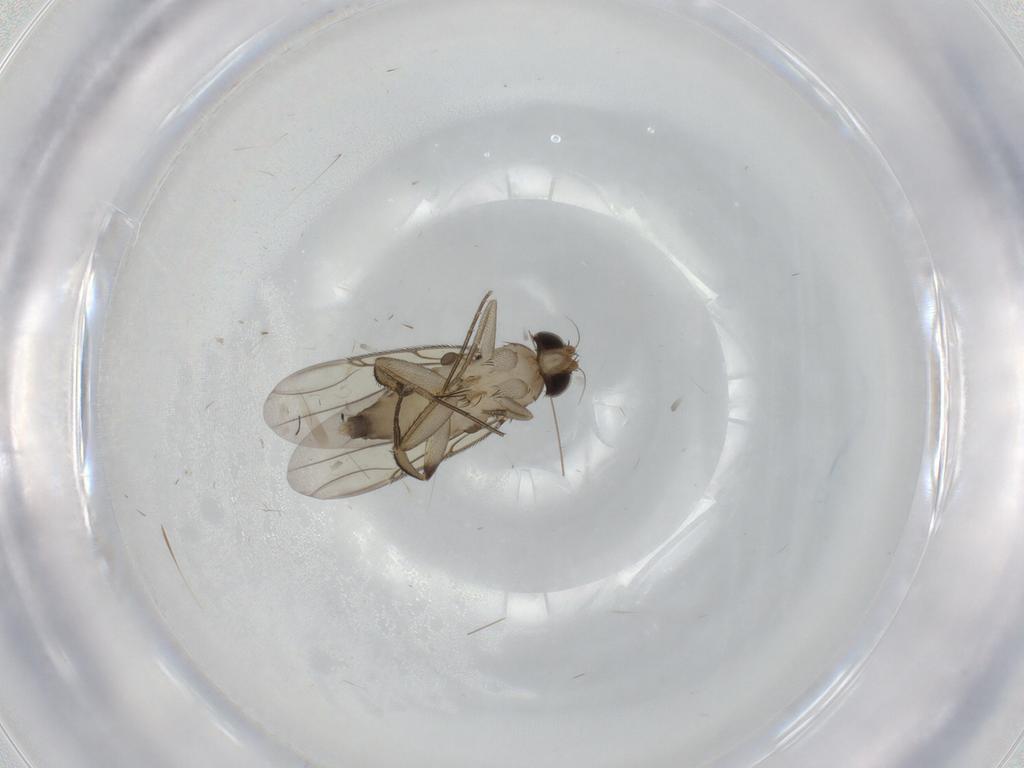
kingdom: Animalia
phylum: Arthropoda
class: Insecta
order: Diptera
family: Phoridae
